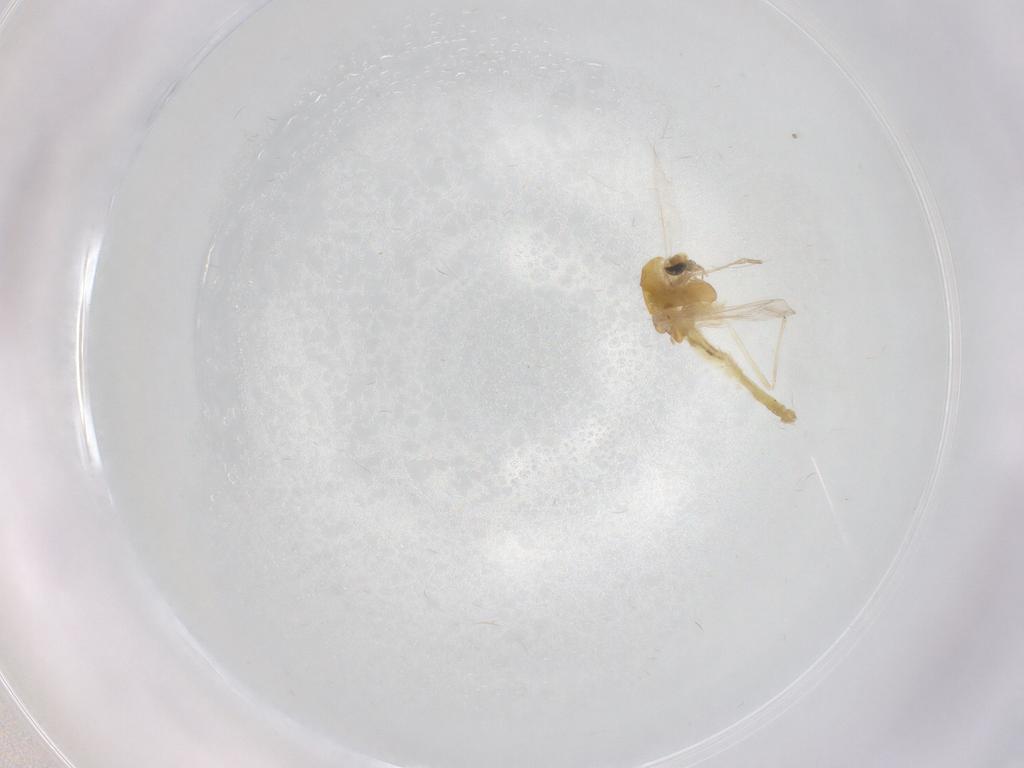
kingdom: Animalia
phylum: Arthropoda
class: Insecta
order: Diptera
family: Chironomidae
